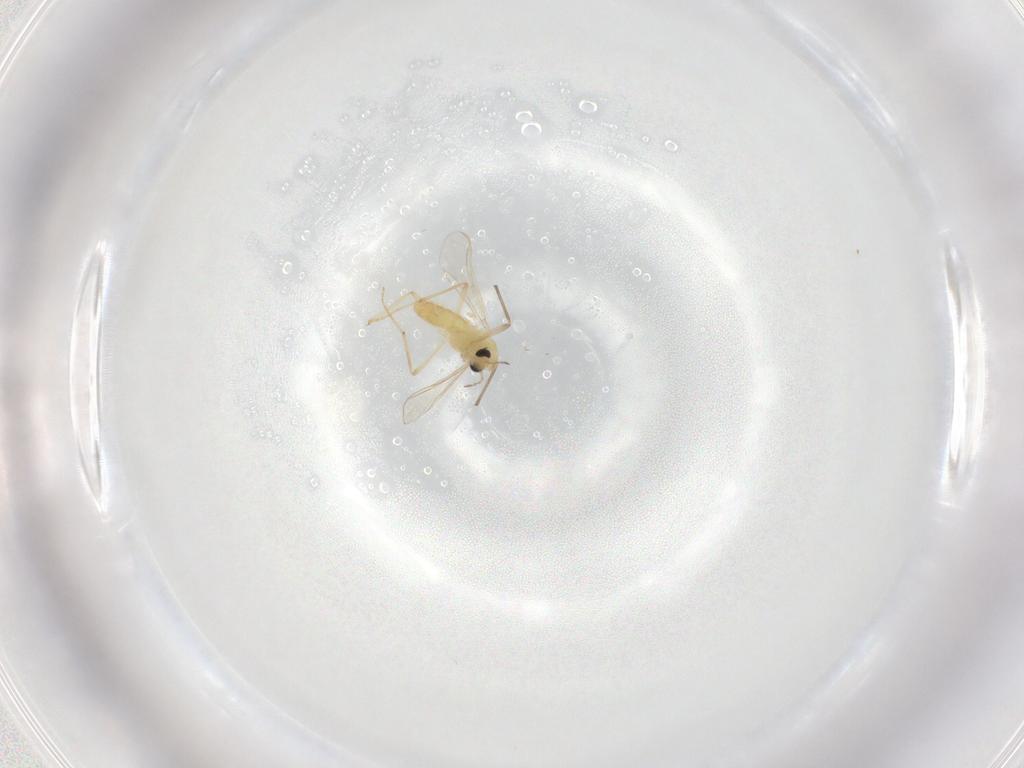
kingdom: Animalia
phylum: Arthropoda
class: Insecta
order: Diptera
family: Chironomidae
